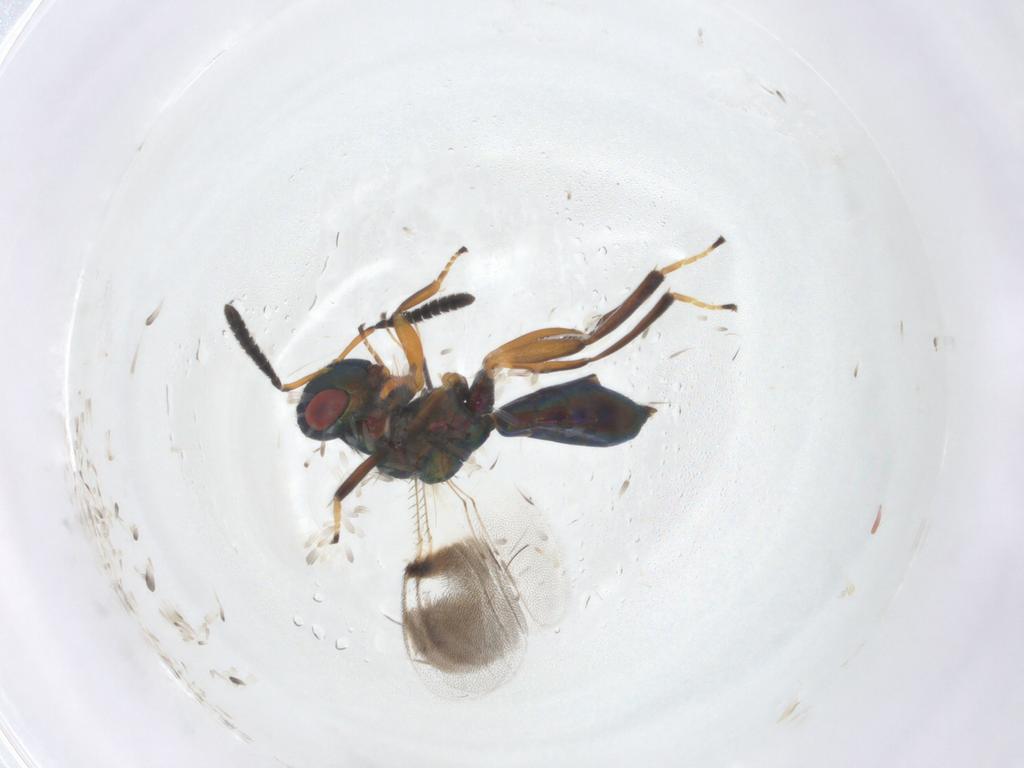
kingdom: Animalia
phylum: Arthropoda
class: Insecta
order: Hymenoptera
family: Pteromalidae
